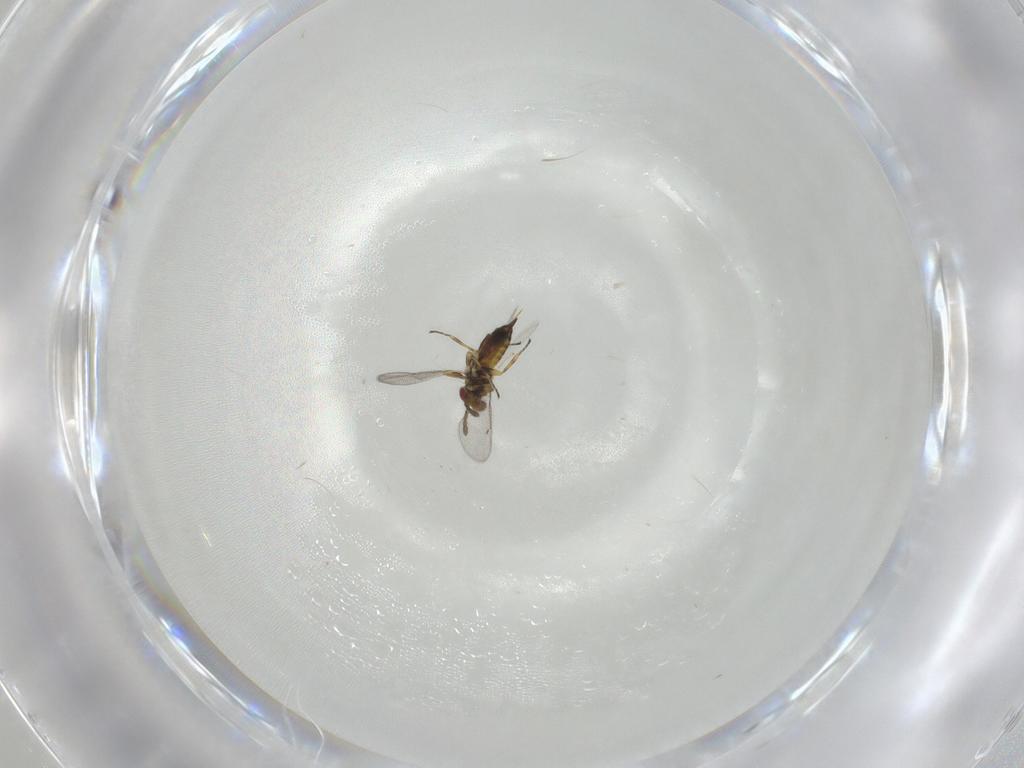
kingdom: Animalia
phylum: Arthropoda
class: Insecta
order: Hymenoptera
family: Eulophidae
